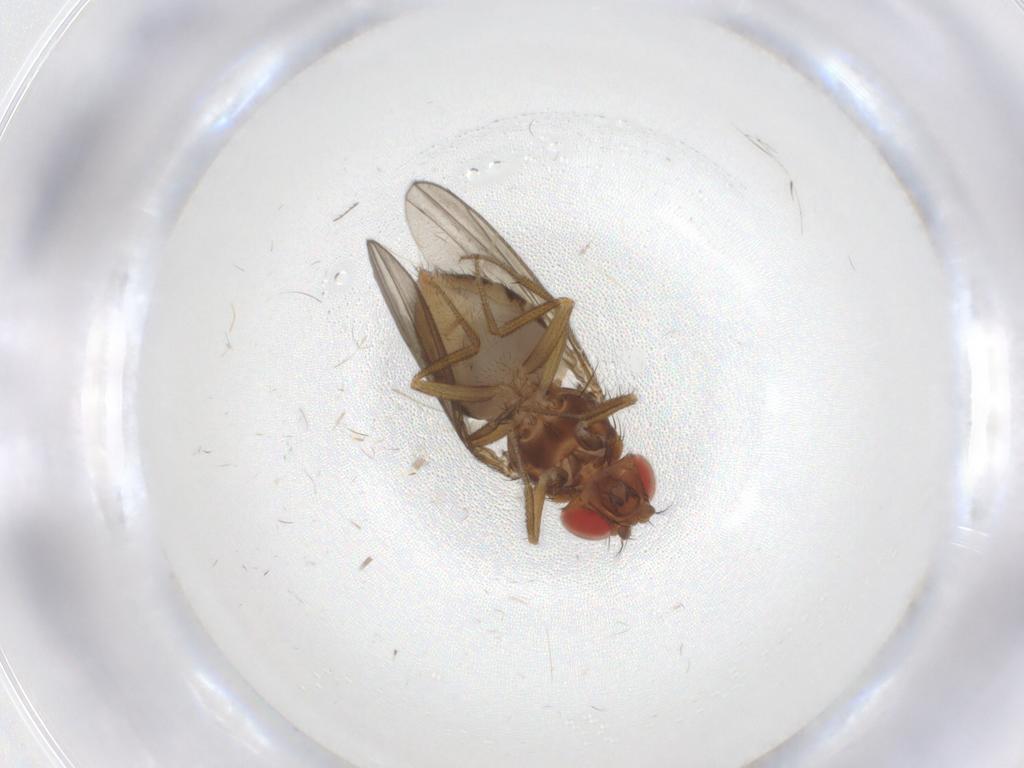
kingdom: Animalia
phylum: Arthropoda
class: Insecta
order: Diptera
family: Drosophilidae
